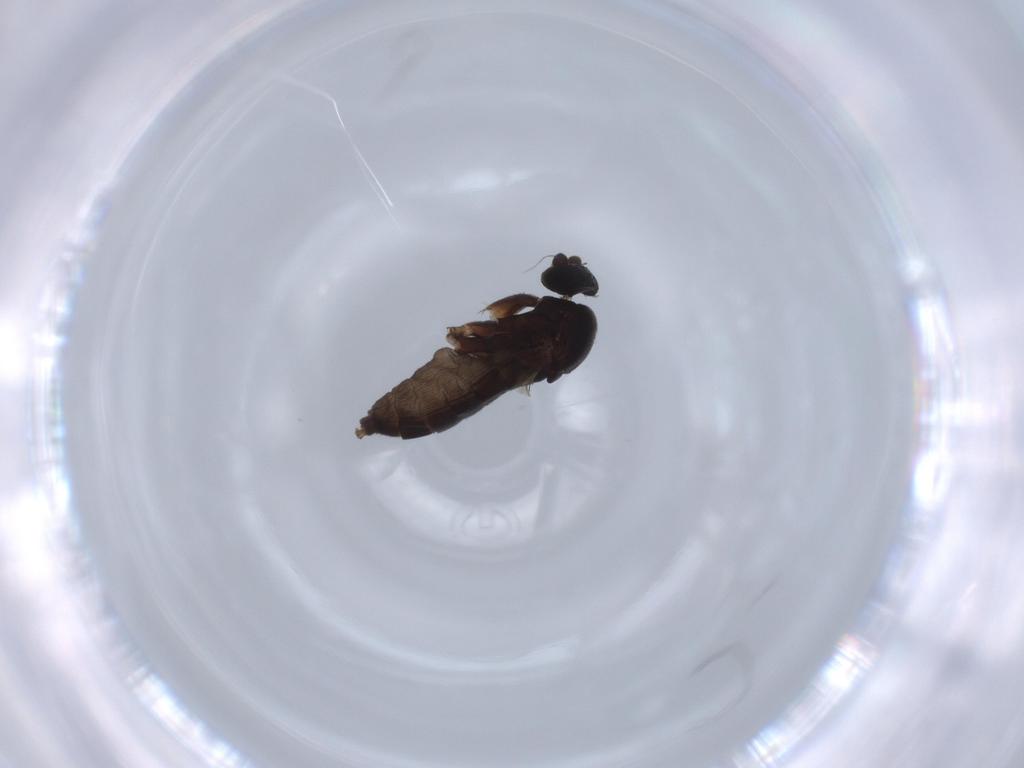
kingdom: Animalia
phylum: Arthropoda
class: Insecta
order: Diptera
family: Phoridae
